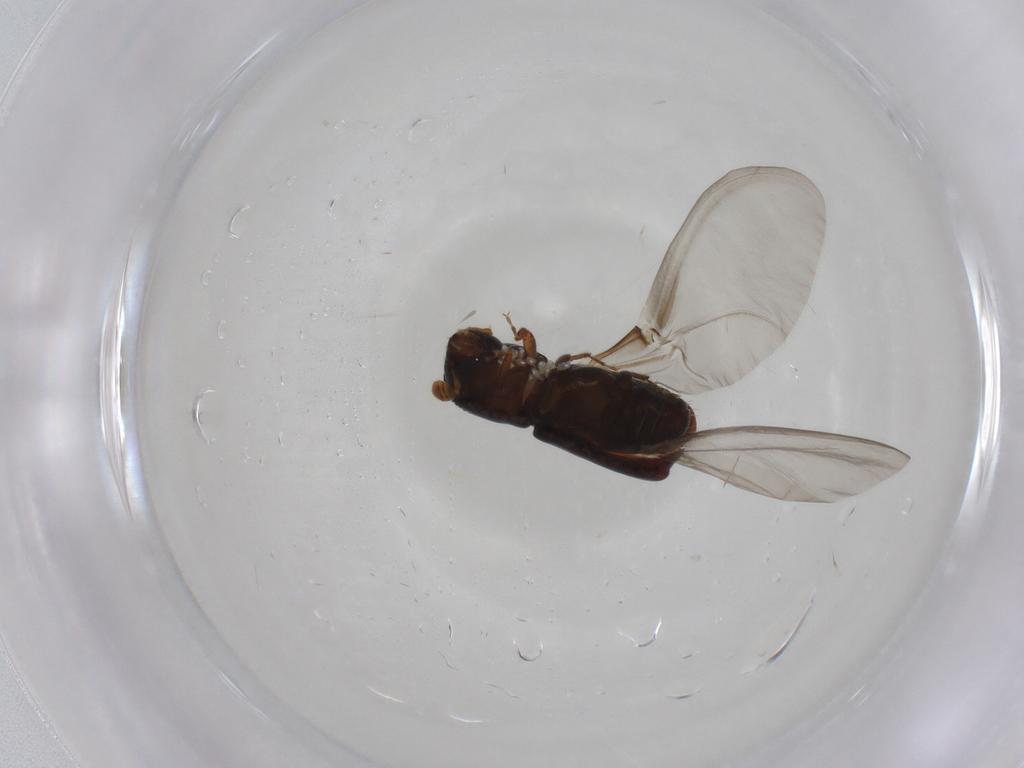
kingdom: Animalia
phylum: Arthropoda
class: Insecta
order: Coleoptera
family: Curculionidae
